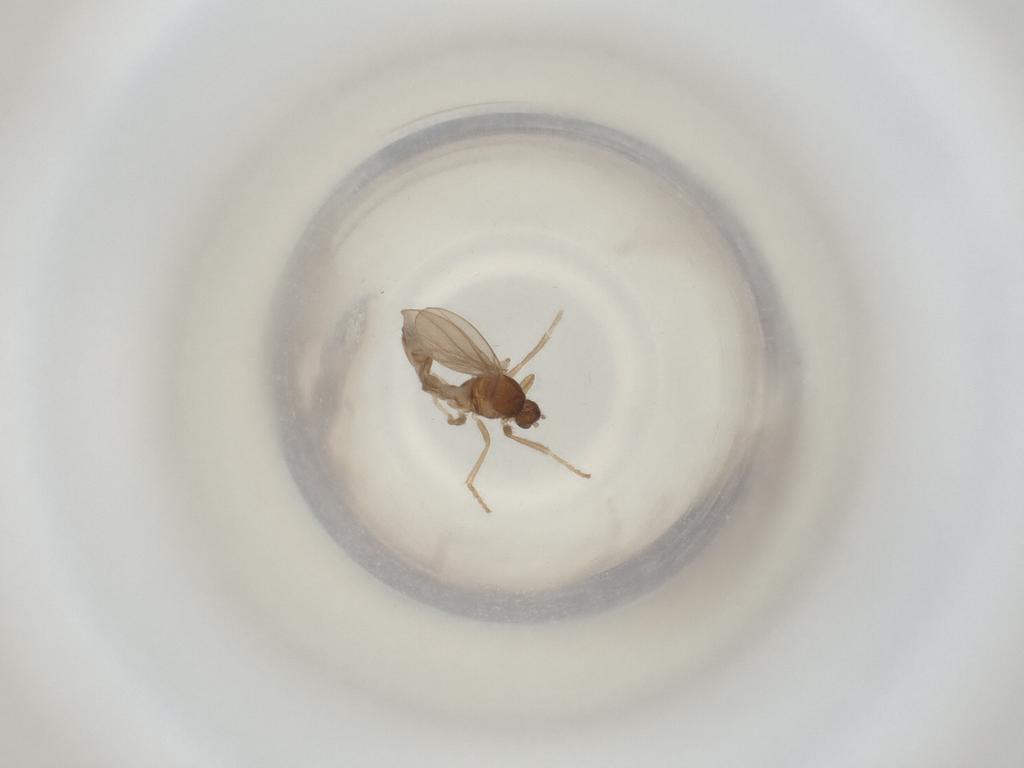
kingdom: Animalia
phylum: Arthropoda
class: Insecta
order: Diptera
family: Cecidomyiidae
